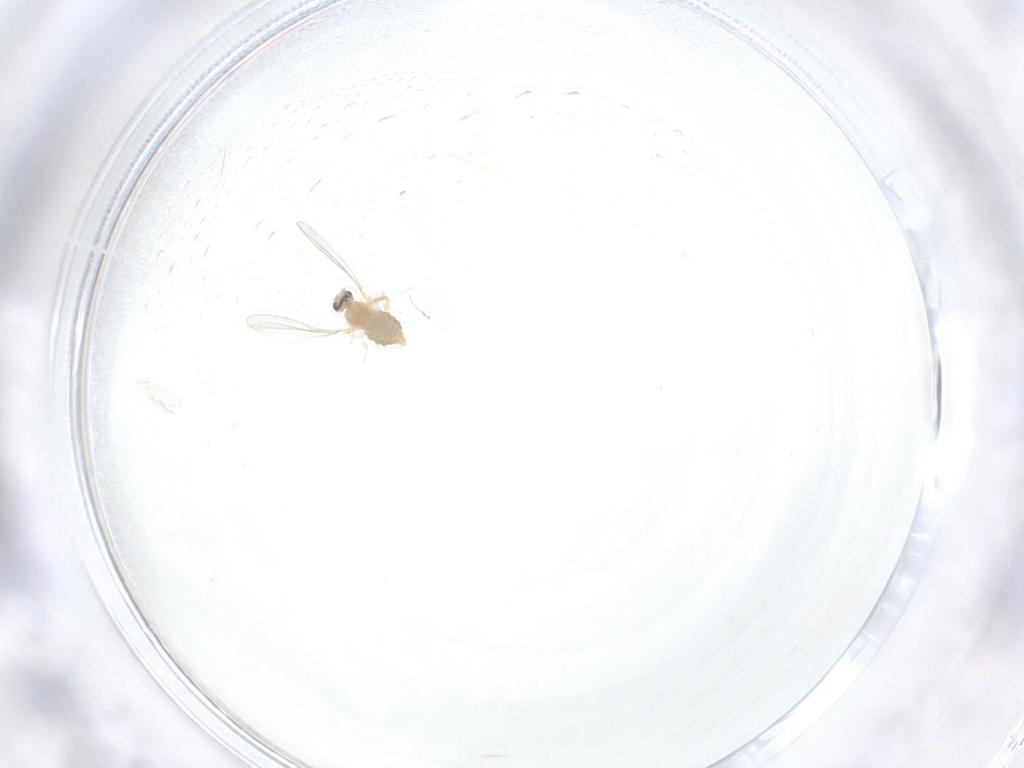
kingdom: Animalia
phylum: Arthropoda
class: Insecta
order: Diptera
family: Cecidomyiidae
